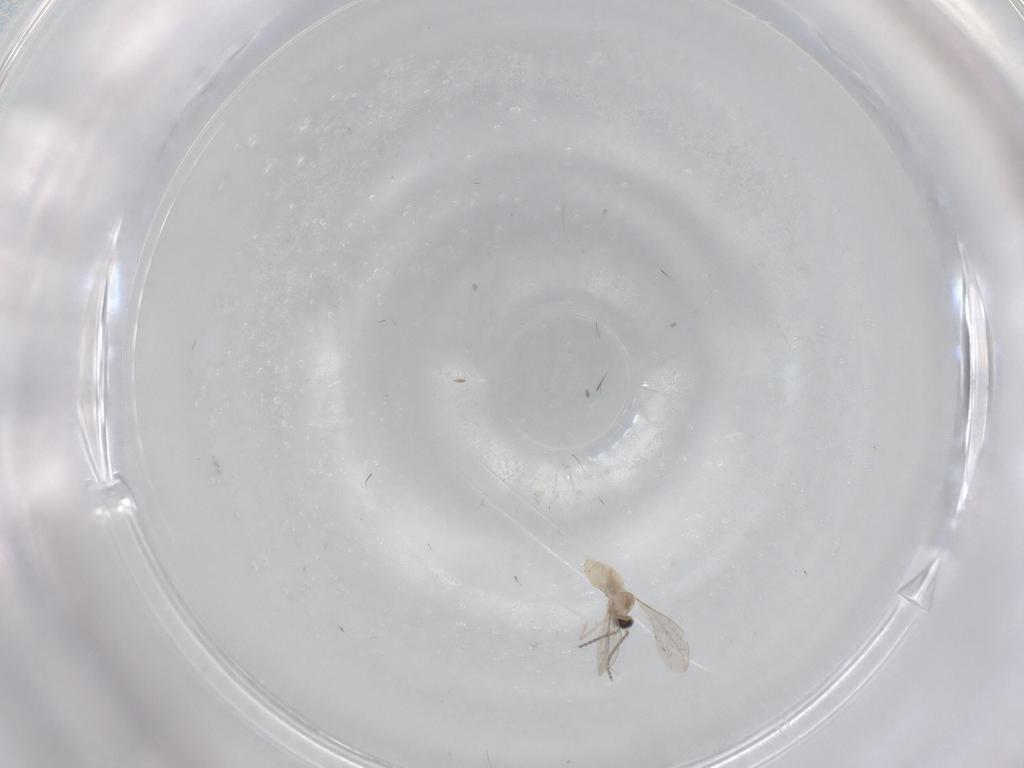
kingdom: Animalia
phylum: Arthropoda
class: Insecta
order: Diptera
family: Cecidomyiidae
